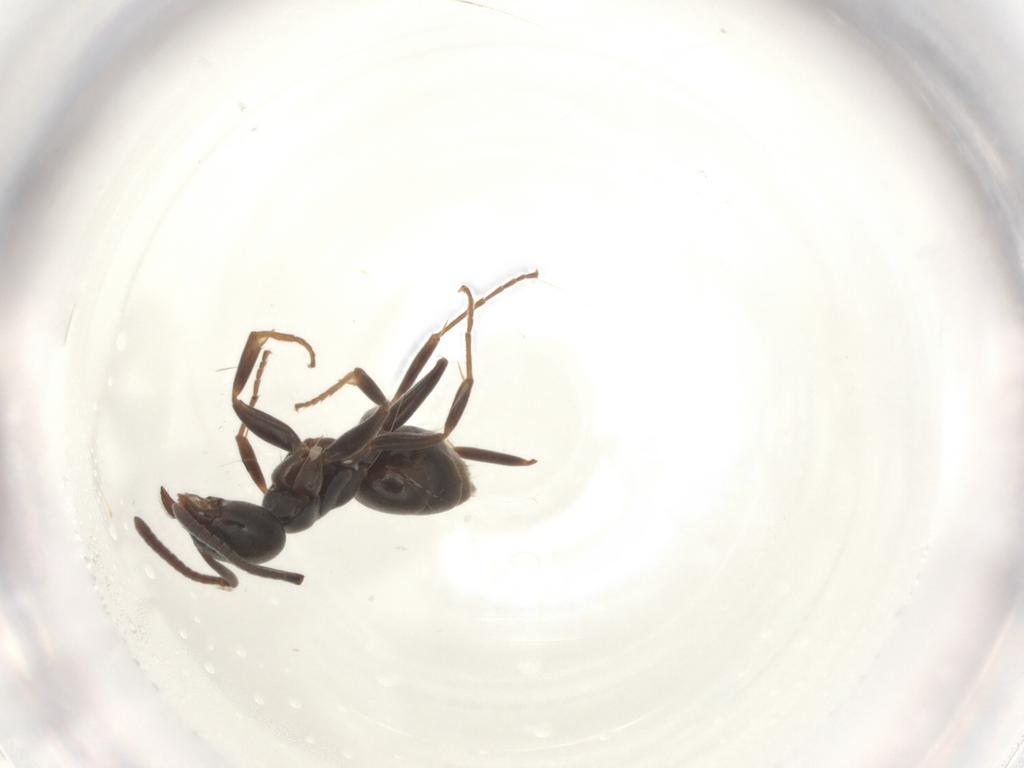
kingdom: Animalia
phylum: Arthropoda
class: Insecta
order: Hymenoptera
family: Formicidae
